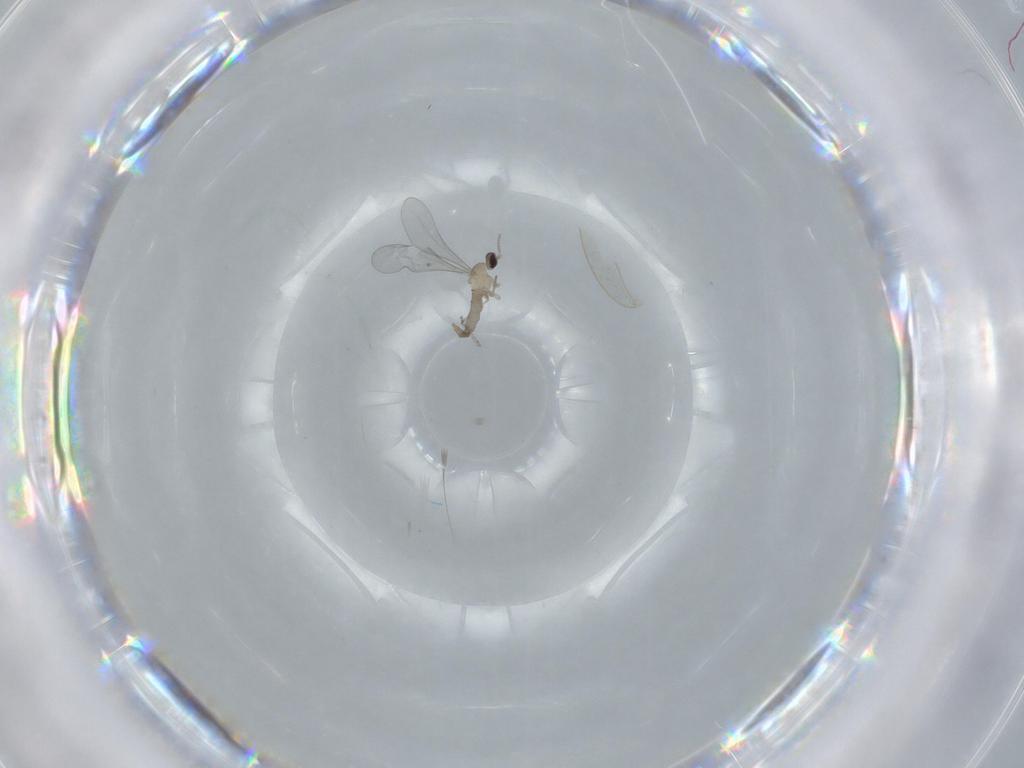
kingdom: Animalia
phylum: Arthropoda
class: Insecta
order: Diptera
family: Cecidomyiidae
